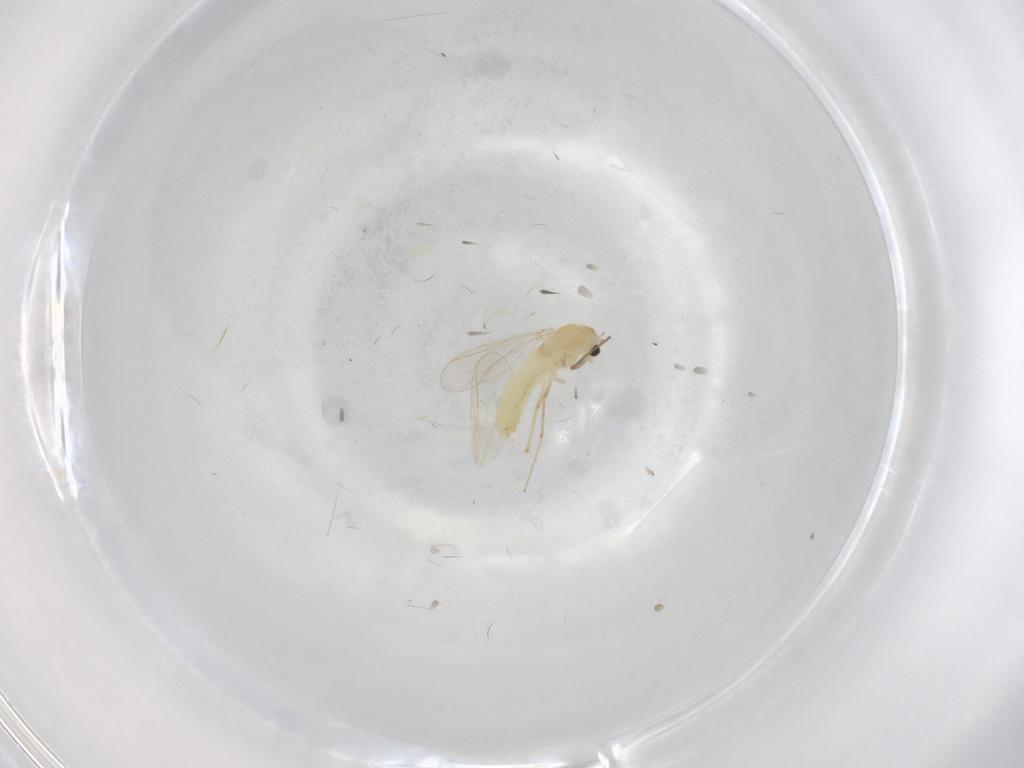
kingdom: Animalia
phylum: Arthropoda
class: Insecta
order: Diptera
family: Chironomidae
